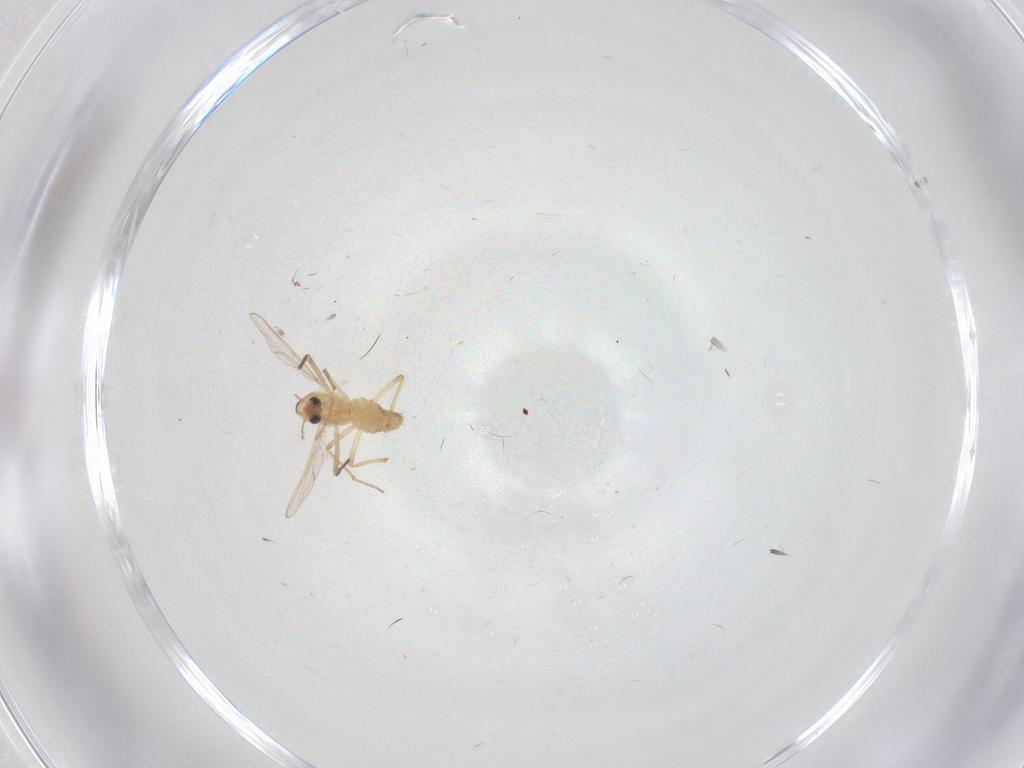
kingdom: Animalia
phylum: Arthropoda
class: Insecta
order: Diptera
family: Chironomidae
